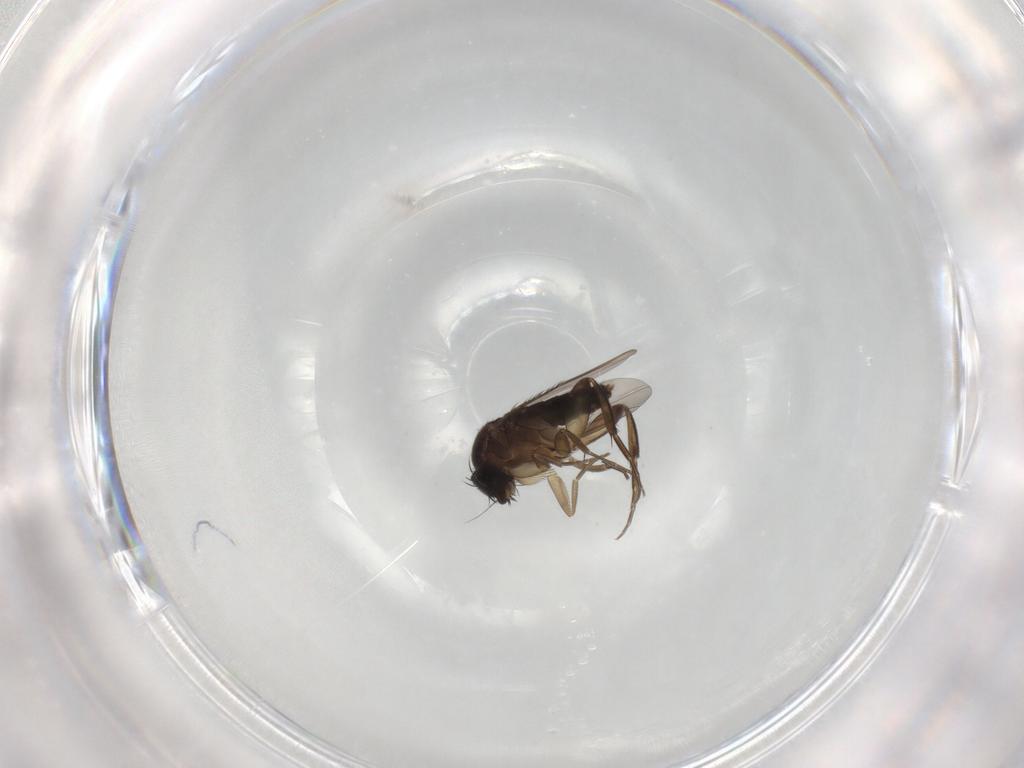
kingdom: Animalia
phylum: Arthropoda
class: Insecta
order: Diptera
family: Phoridae
